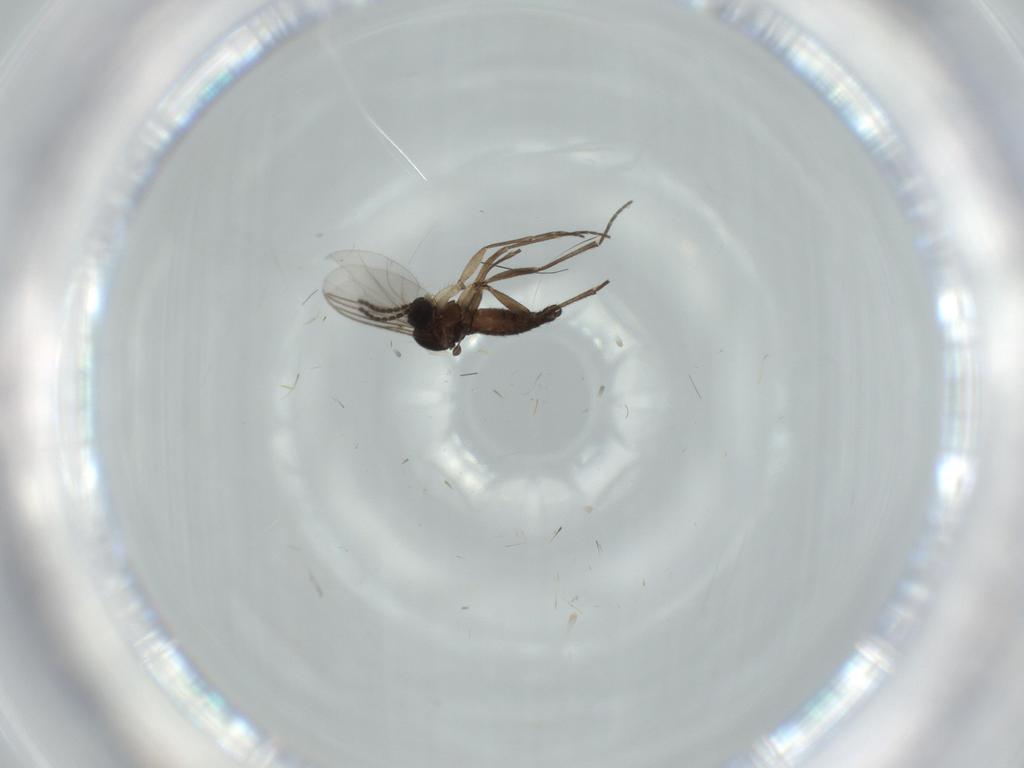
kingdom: Animalia
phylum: Arthropoda
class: Insecta
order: Diptera
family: Sciaridae
